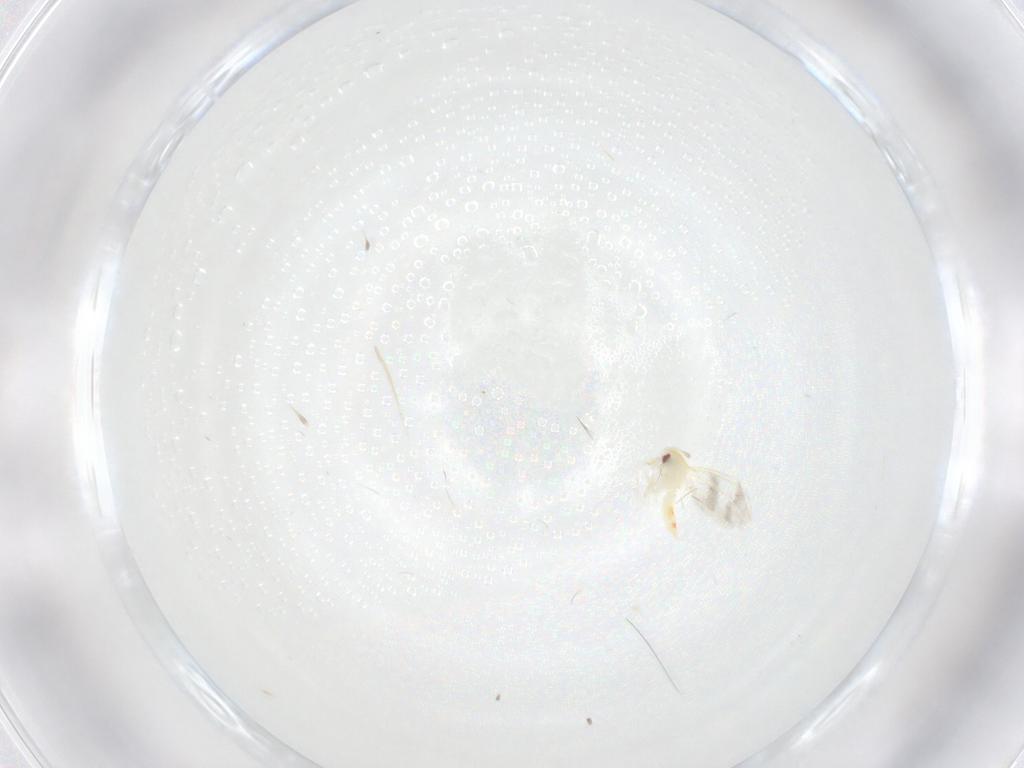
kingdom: Animalia
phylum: Arthropoda
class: Insecta
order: Hemiptera
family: Aleyrodidae
